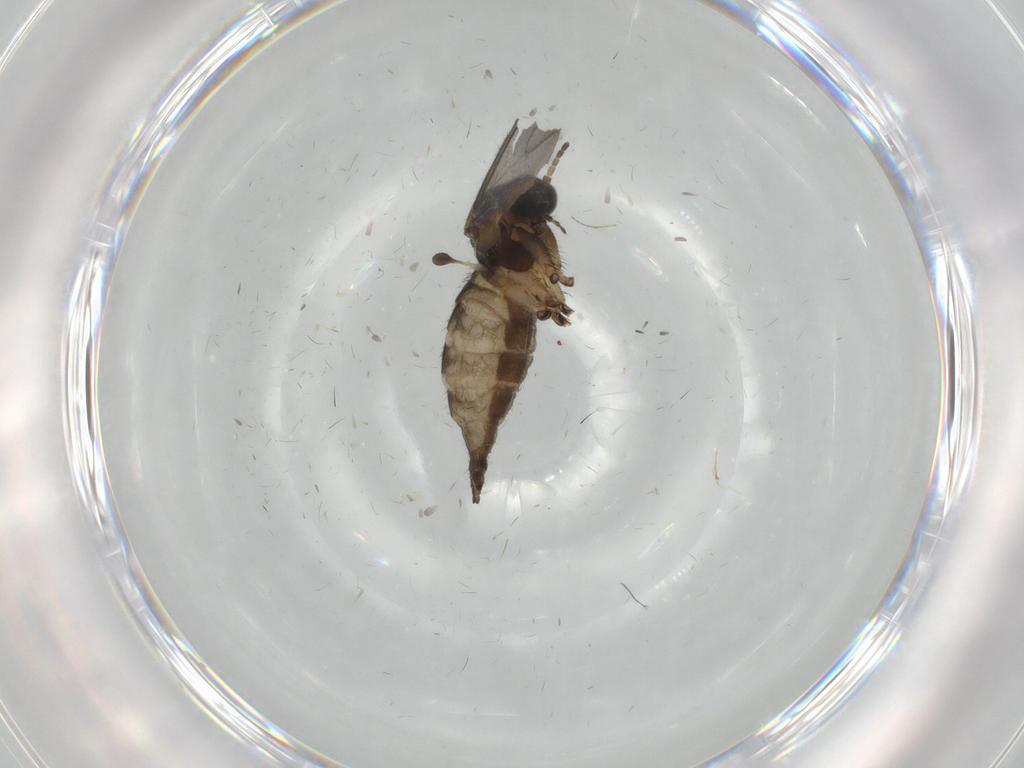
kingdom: Animalia
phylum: Arthropoda
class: Insecta
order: Diptera
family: Sciaridae
